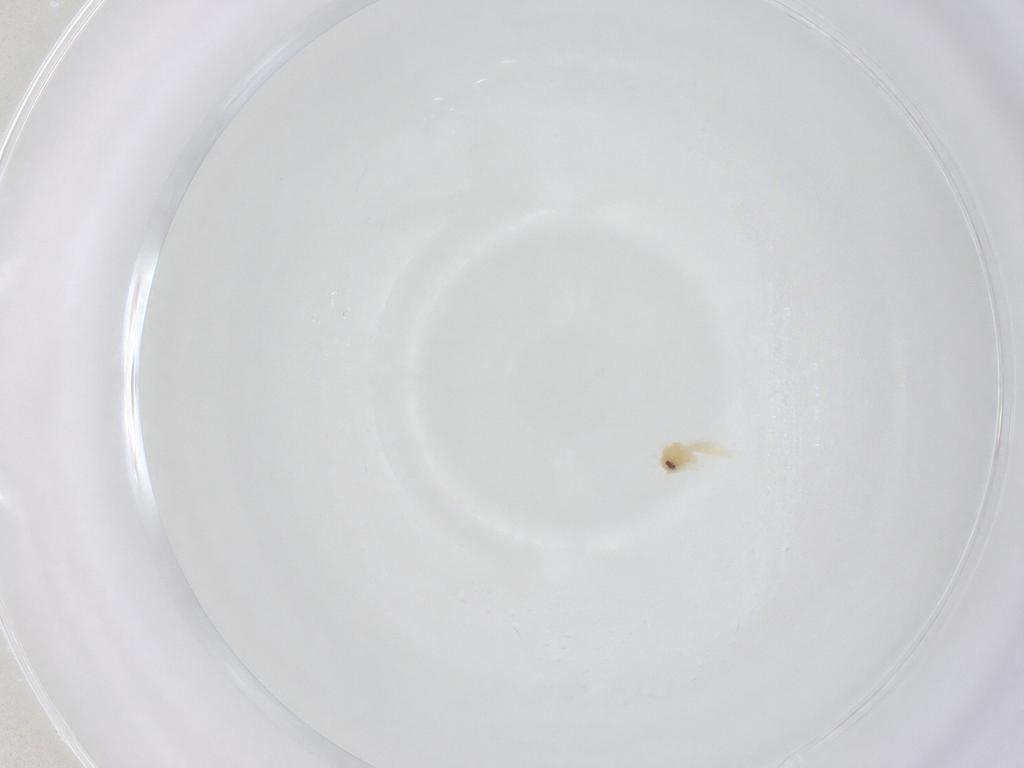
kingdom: Animalia
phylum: Arthropoda
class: Insecta
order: Hemiptera
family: Aleyrodidae
